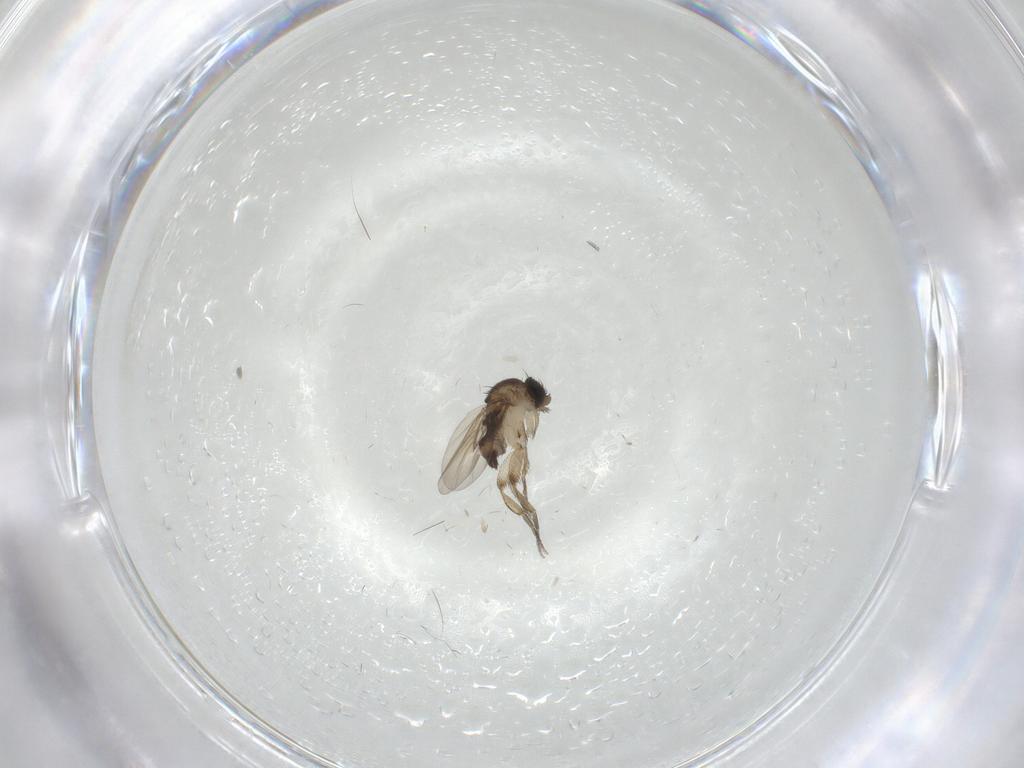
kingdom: Animalia
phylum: Arthropoda
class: Insecta
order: Diptera
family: Phoridae
